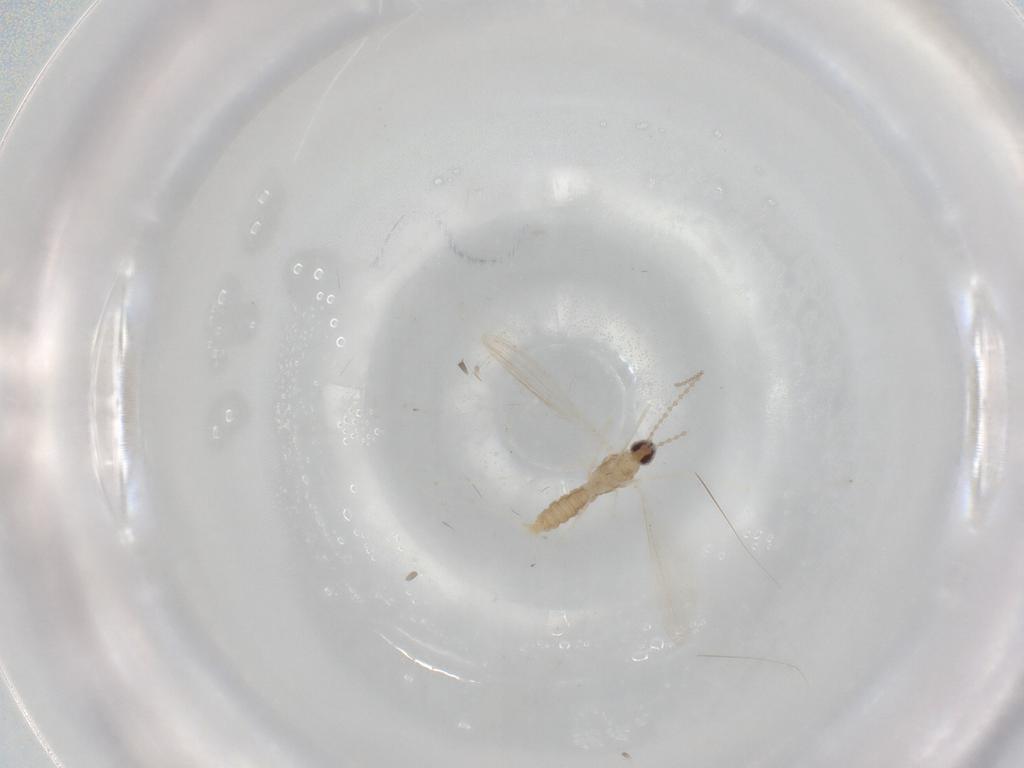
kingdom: Animalia
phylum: Arthropoda
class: Insecta
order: Diptera
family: Cecidomyiidae
